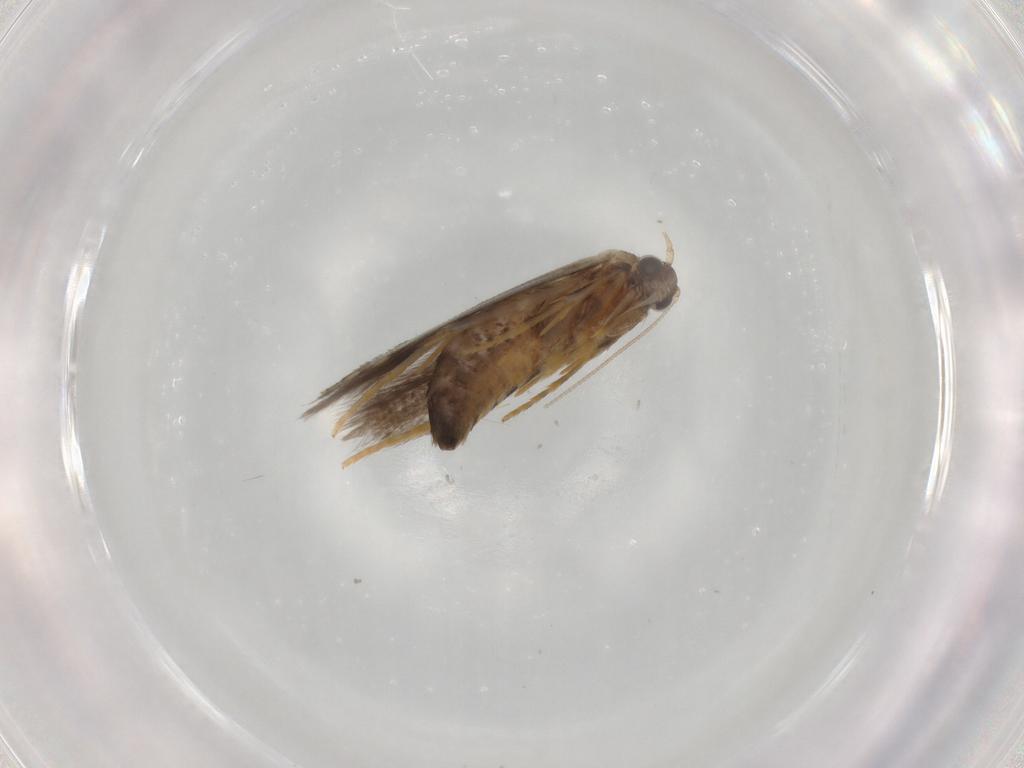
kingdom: Animalia
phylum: Arthropoda
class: Insecta
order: Lepidoptera
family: Tineidae
